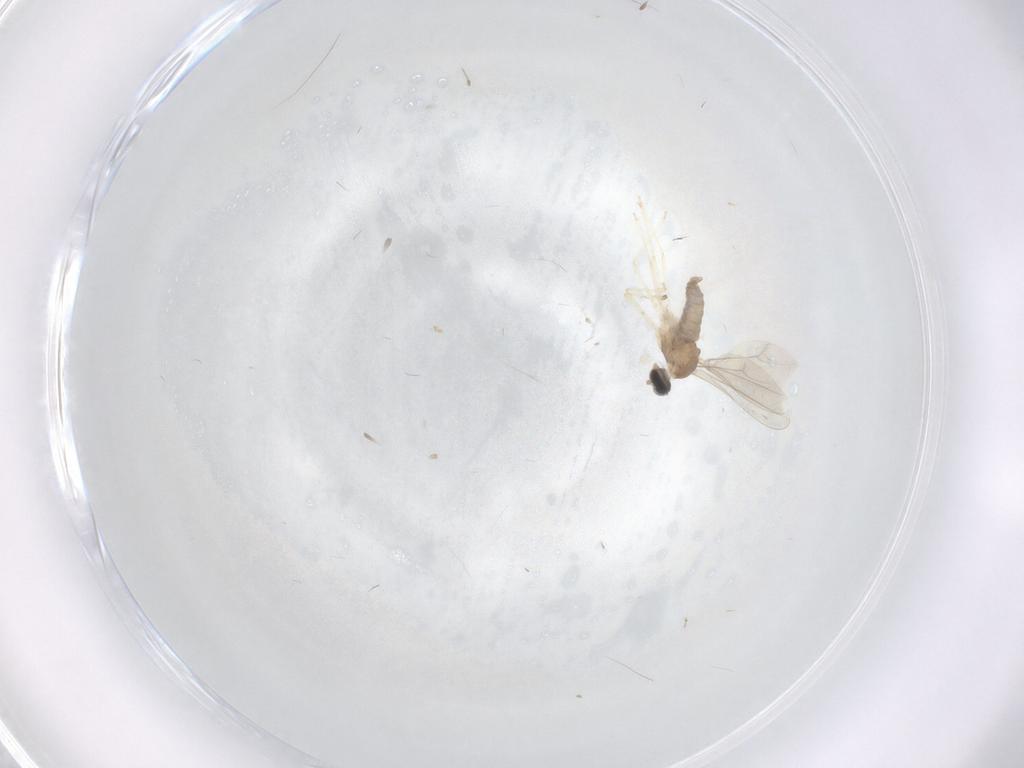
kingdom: Animalia
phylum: Arthropoda
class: Insecta
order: Diptera
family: Cecidomyiidae
